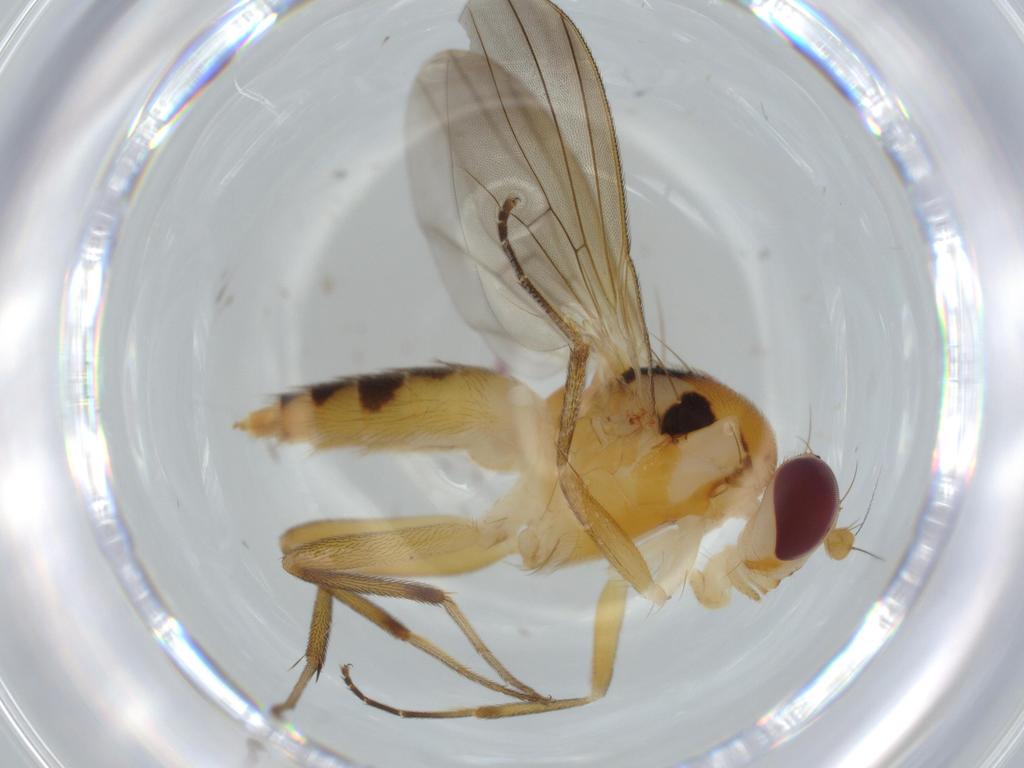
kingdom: Animalia
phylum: Arthropoda
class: Insecta
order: Diptera
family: Clusiidae
